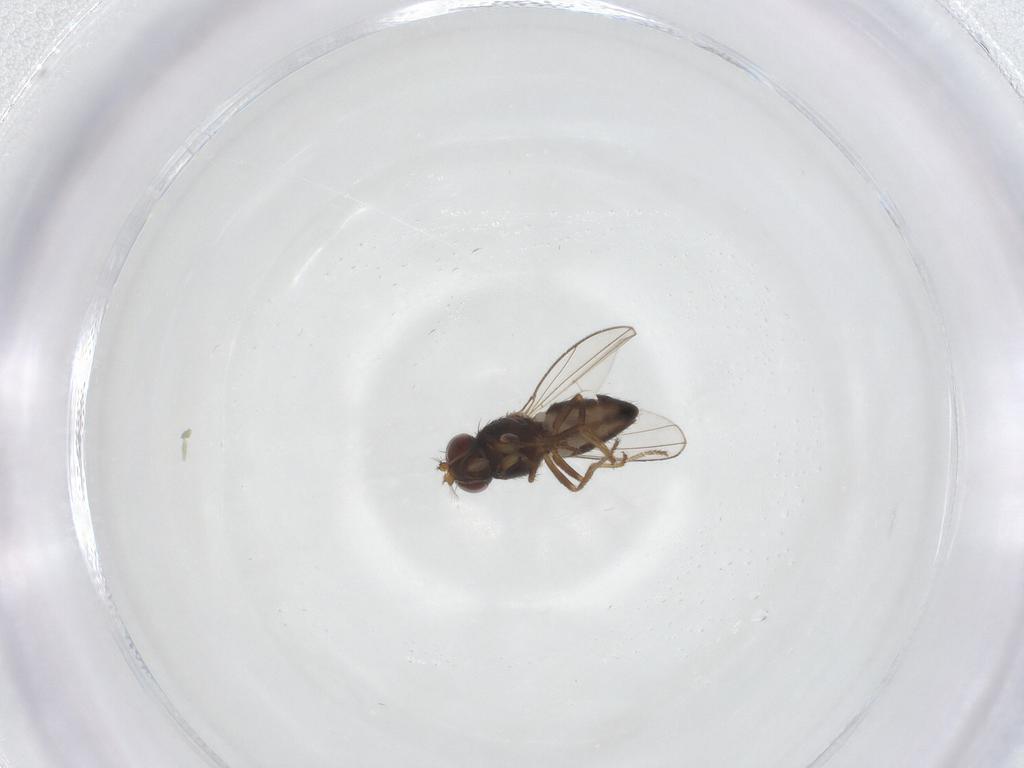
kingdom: Animalia
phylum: Arthropoda
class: Insecta
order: Diptera
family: Ephydridae
